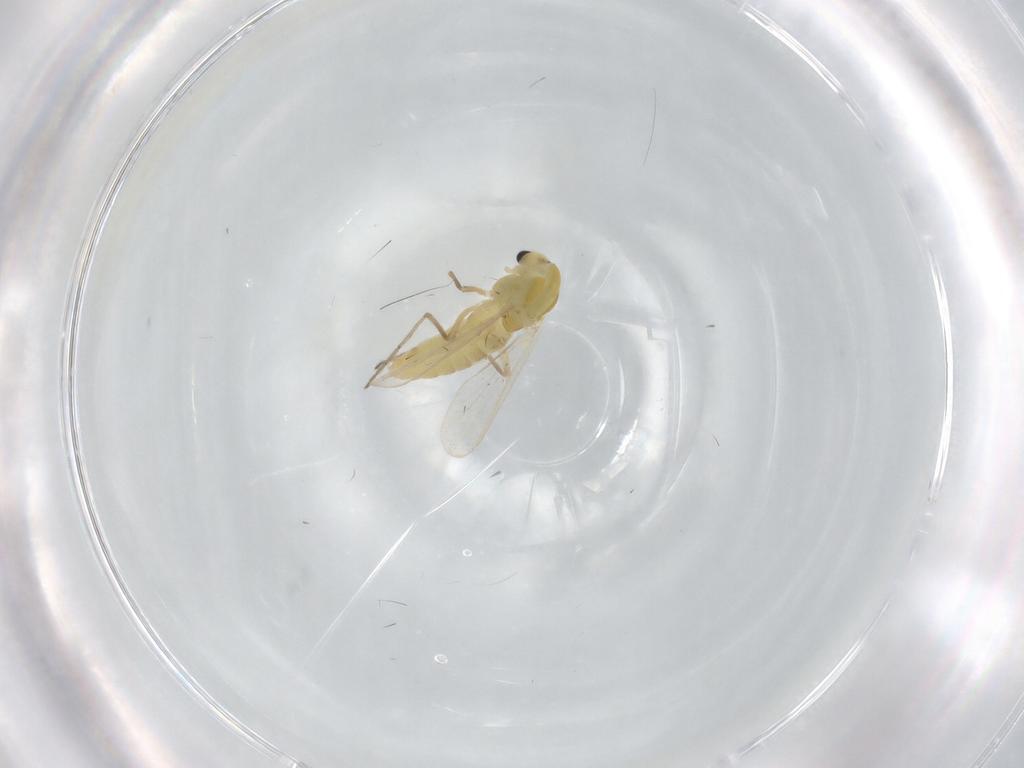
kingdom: Animalia
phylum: Arthropoda
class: Insecta
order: Diptera
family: Chironomidae
